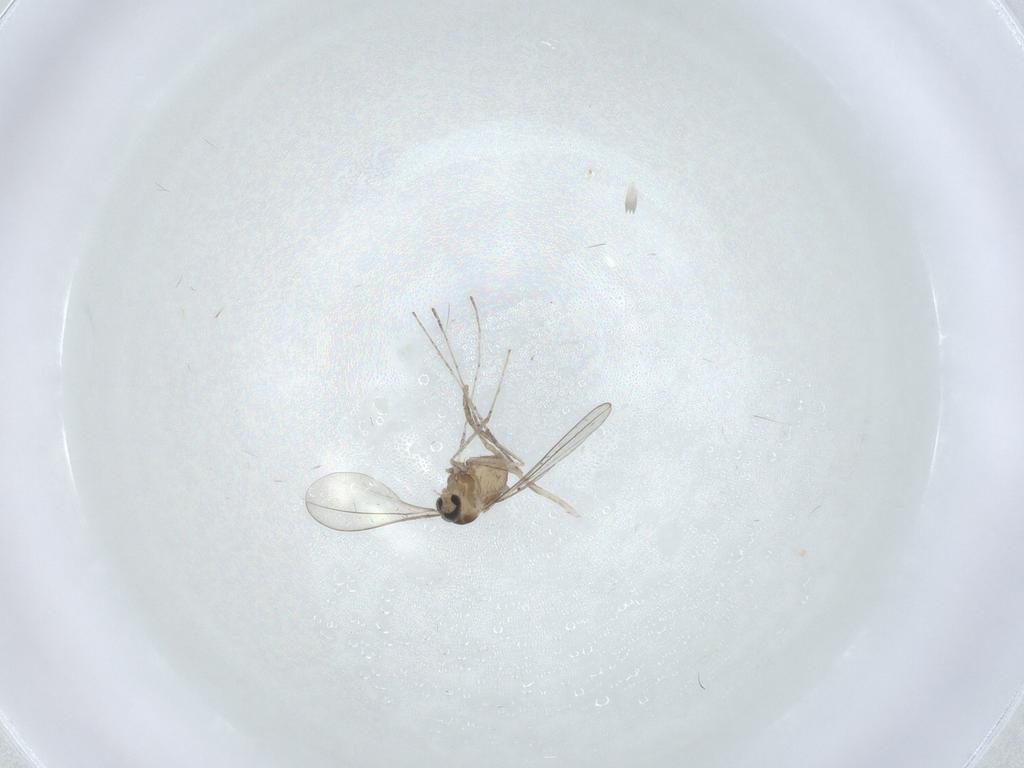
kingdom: Animalia
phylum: Arthropoda
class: Insecta
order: Diptera
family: Cecidomyiidae
